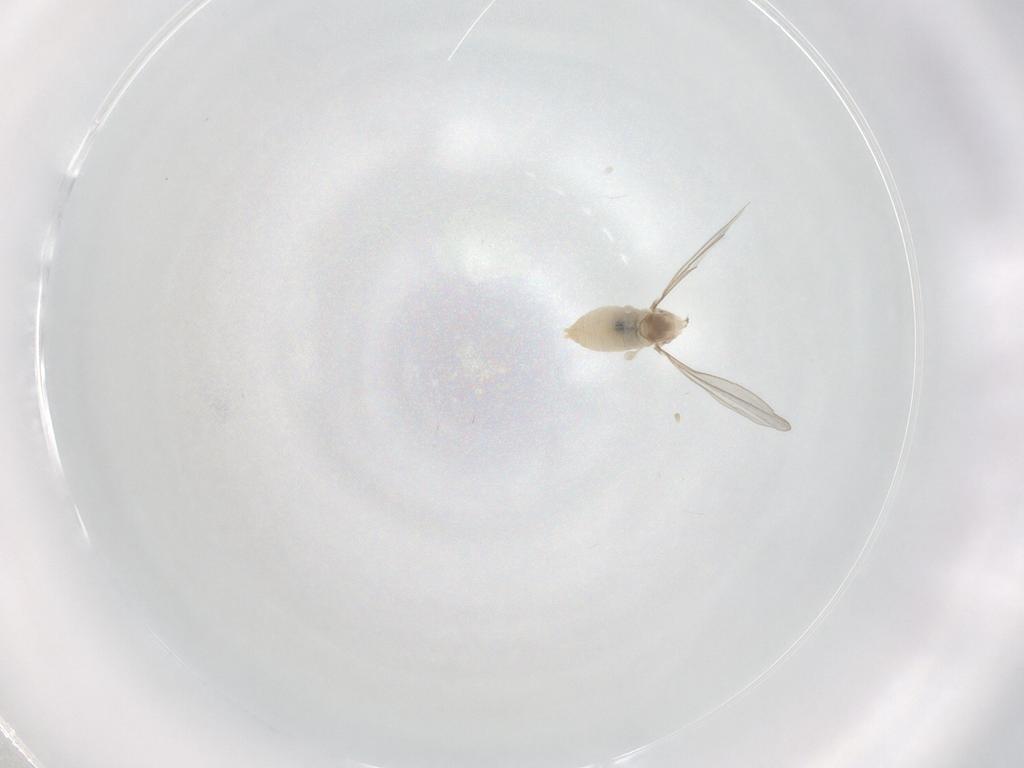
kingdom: Animalia
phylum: Arthropoda
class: Insecta
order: Diptera
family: Cecidomyiidae
